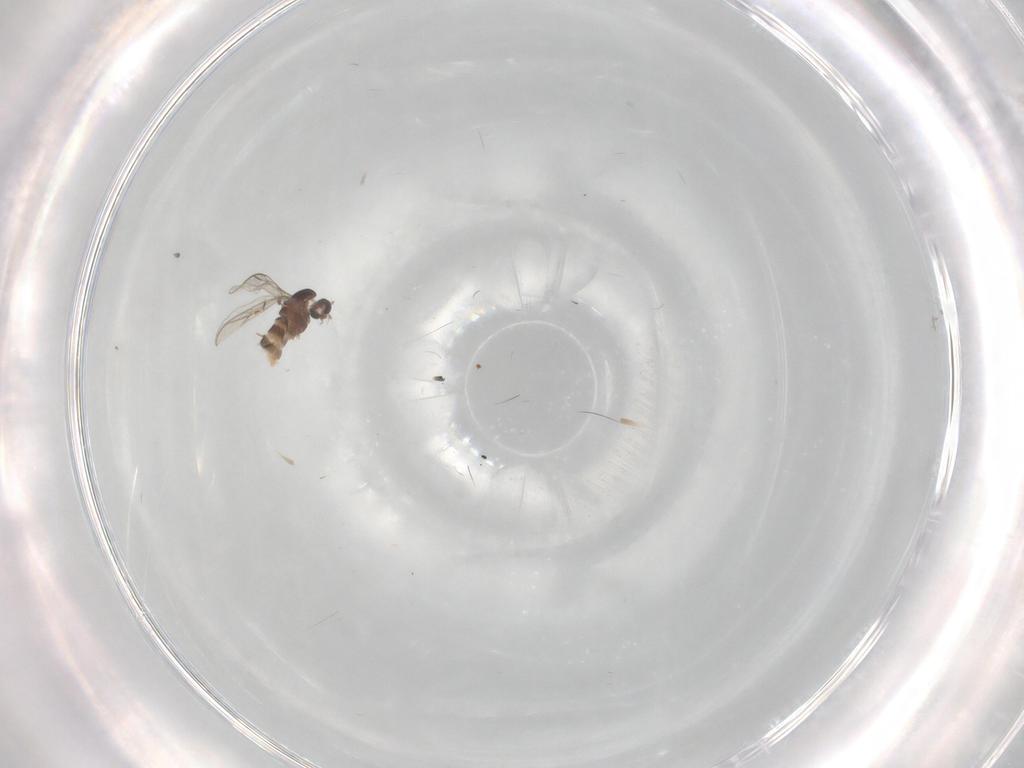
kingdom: Animalia
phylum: Arthropoda
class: Insecta
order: Diptera
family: Chironomidae
